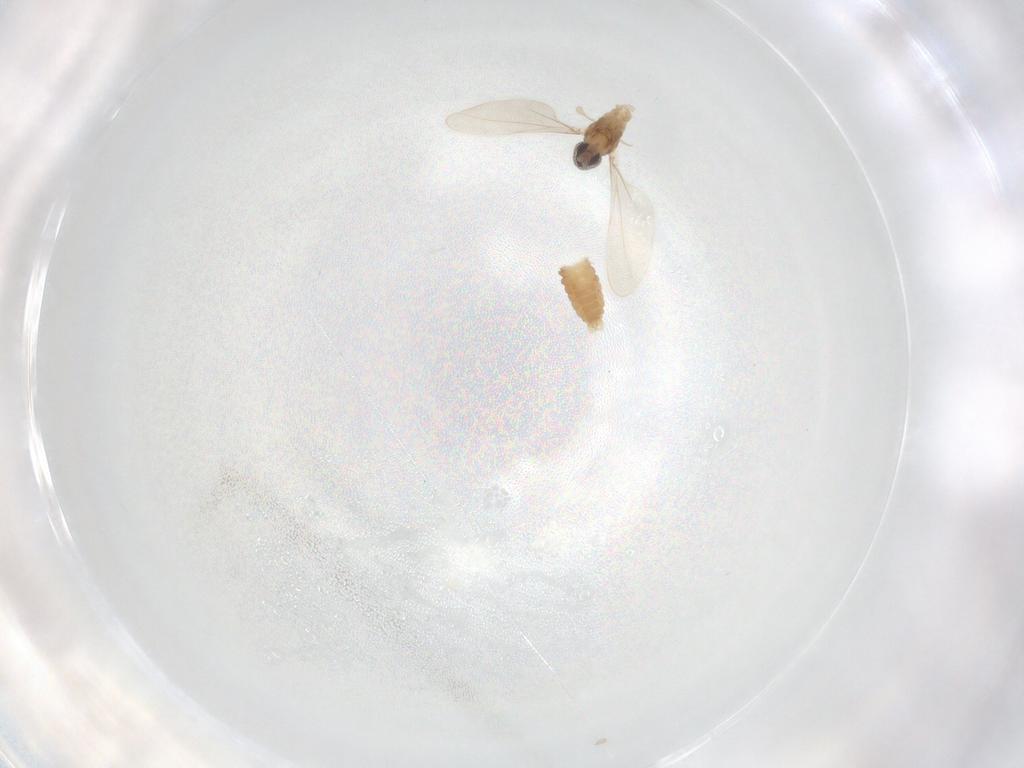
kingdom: Animalia
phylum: Arthropoda
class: Insecta
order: Diptera
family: Cecidomyiidae
